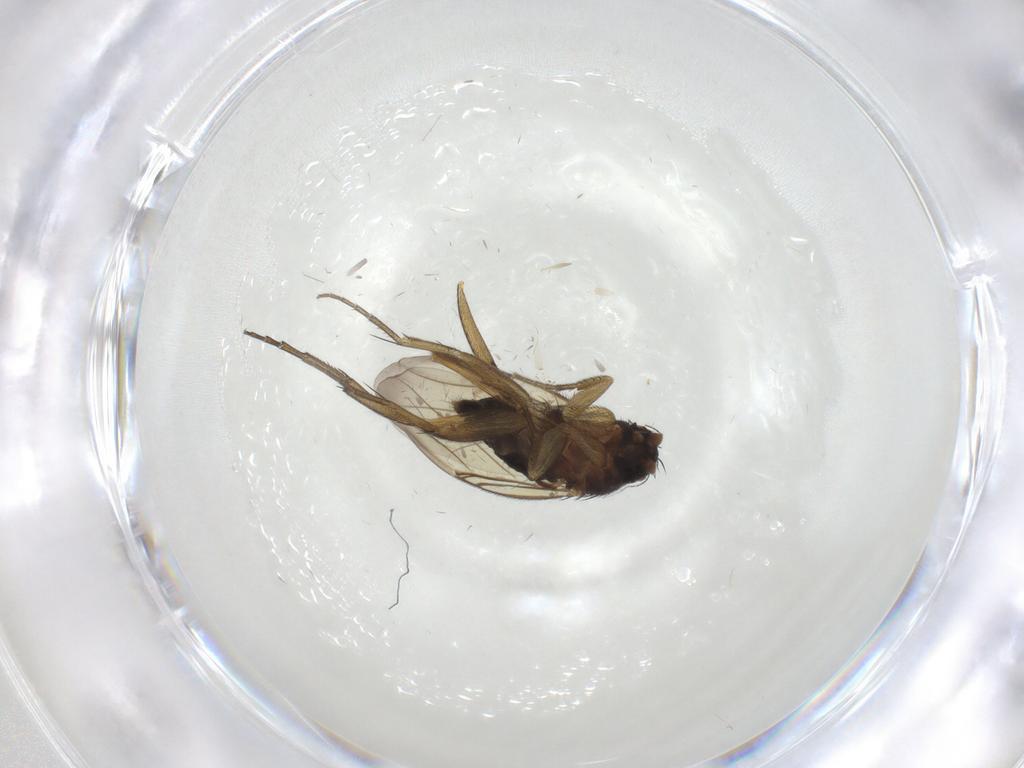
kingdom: Animalia
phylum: Arthropoda
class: Insecta
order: Diptera
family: Phoridae
